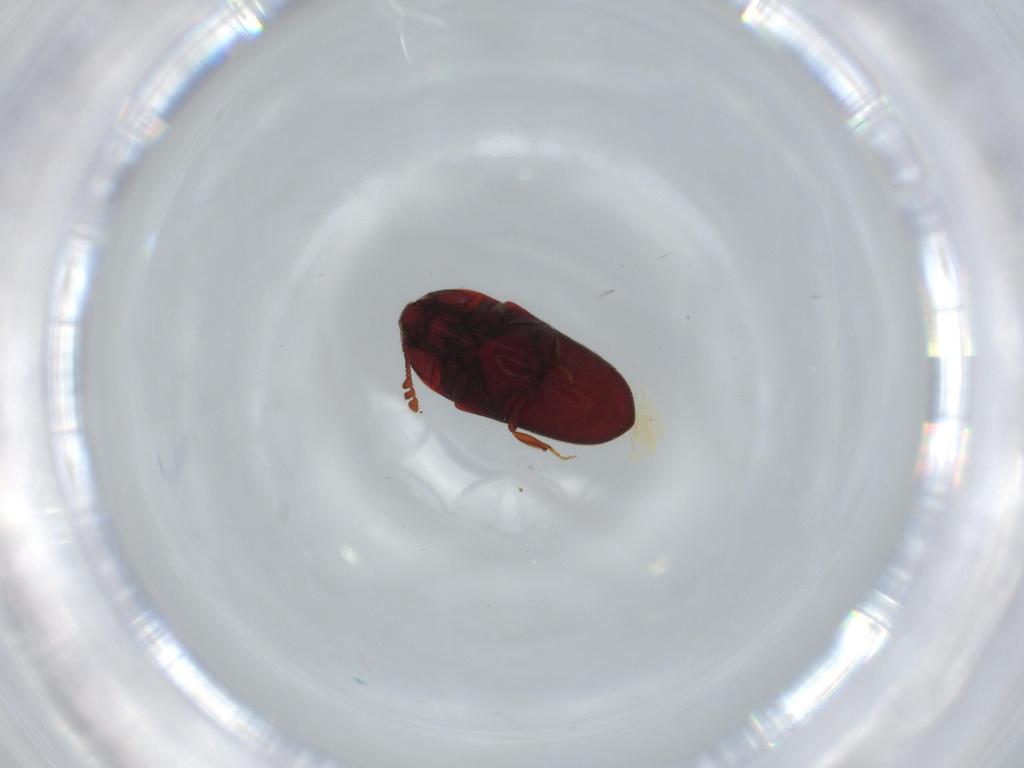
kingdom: Animalia
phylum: Arthropoda
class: Insecta
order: Coleoptera
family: Throscidae
